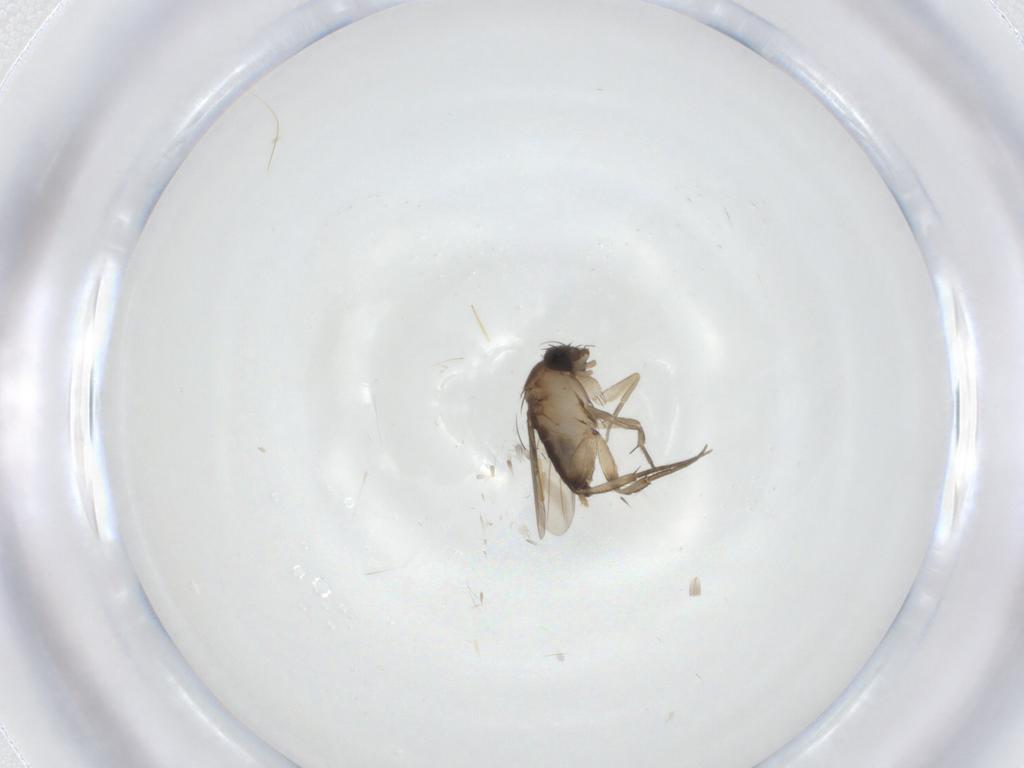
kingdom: Animalia
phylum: Arthropoda
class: Insecta
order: Diptera
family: Phoridae
